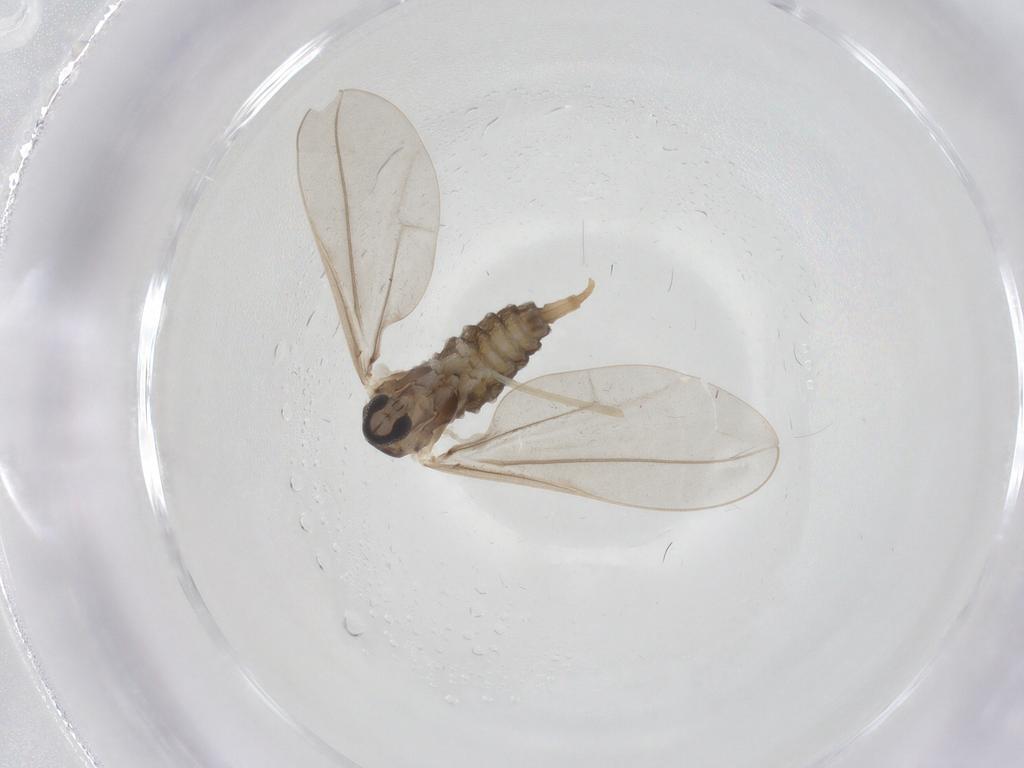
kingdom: Animalia
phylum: Arthropoda
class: Insecta
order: Diptera
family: Cecidomyiidae
